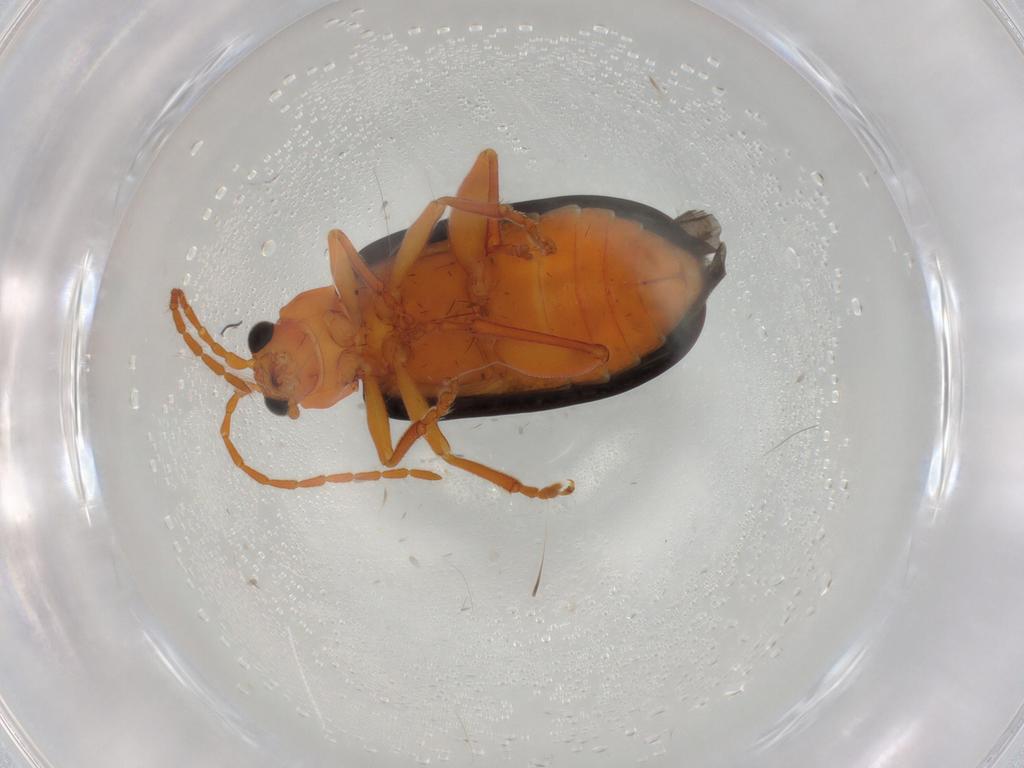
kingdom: Animalia
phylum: Arthropoda
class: Insecta
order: Coleoptera
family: Chrysomelidae
